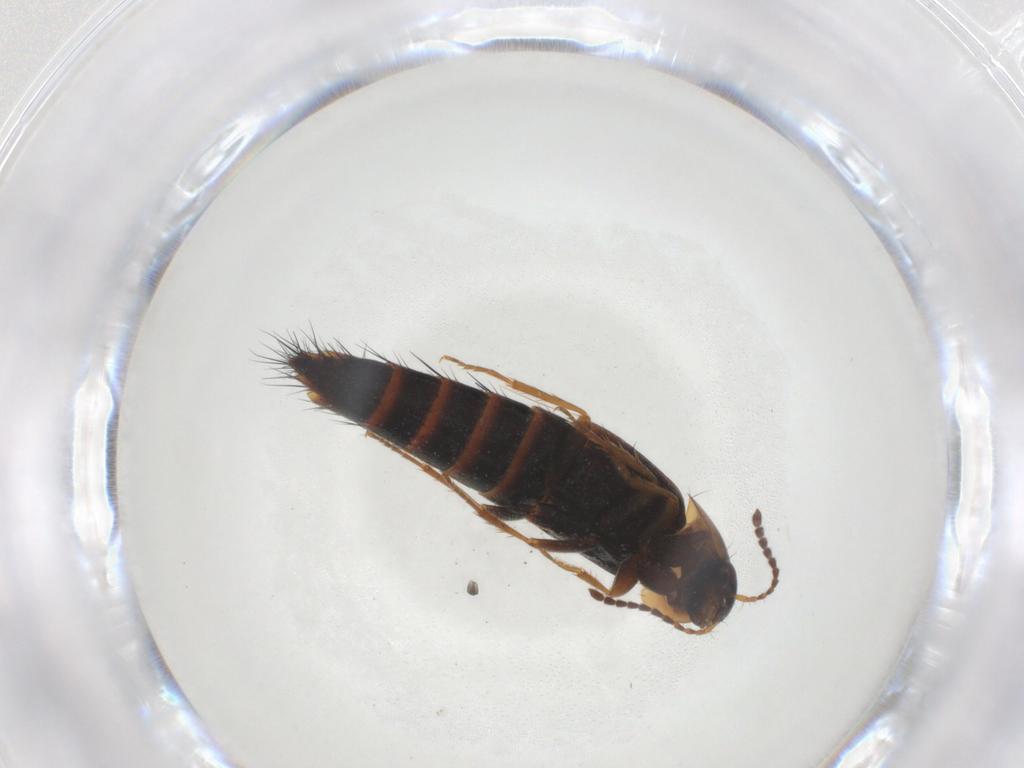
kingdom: Animalia
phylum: Arthropoda
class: Insecta
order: Coleoptera
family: Staphylinidae
